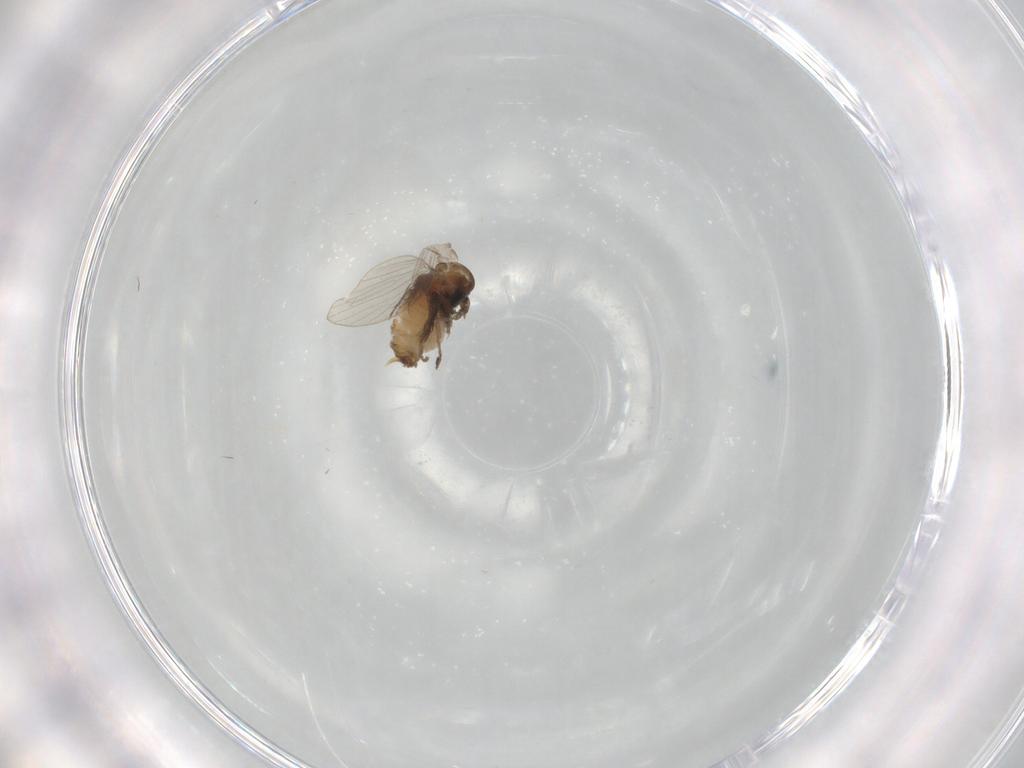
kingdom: Animalia
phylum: Arthropoda
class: Insecta
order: Diptera
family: Psychodidae
